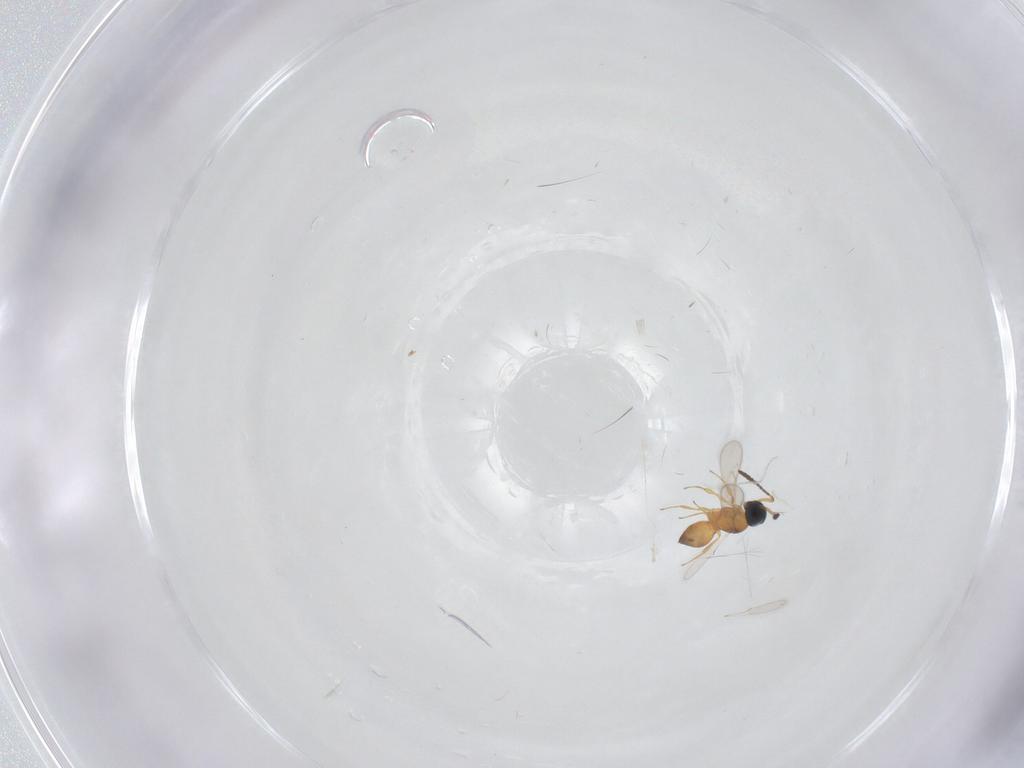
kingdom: Animalia
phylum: Arthropoda
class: Insecta
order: Hymenoptera
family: Scelionidae
